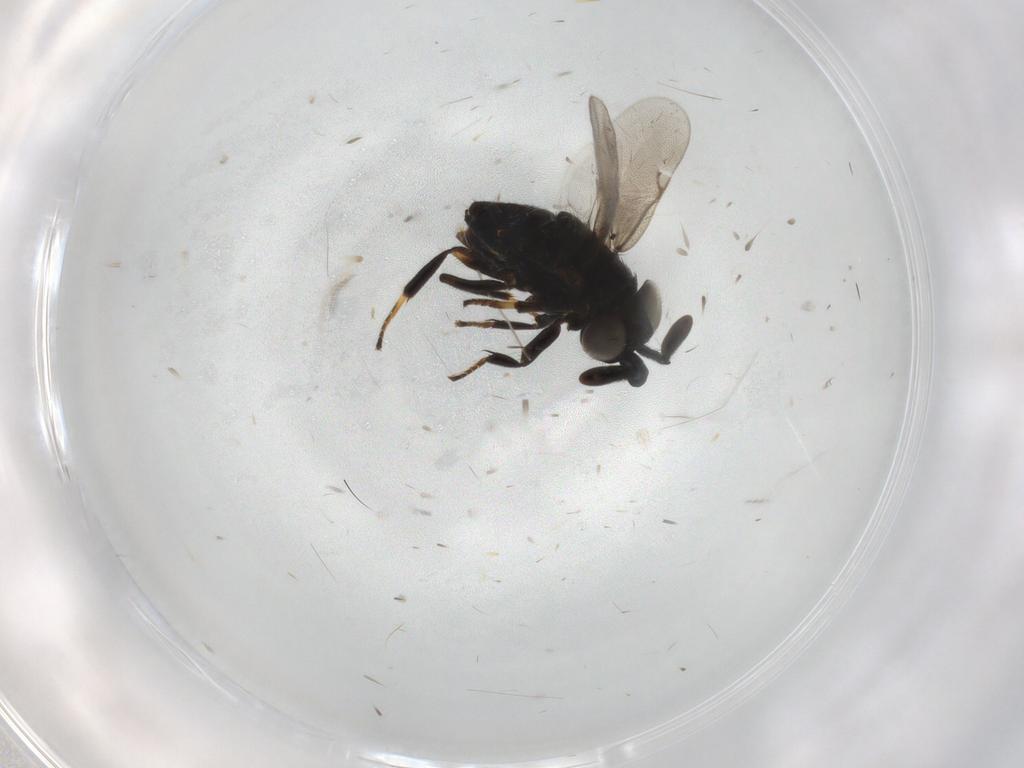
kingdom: Animalia
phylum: Arthropoda
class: Insecta
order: Hymenoptera
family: Encyrtidae
